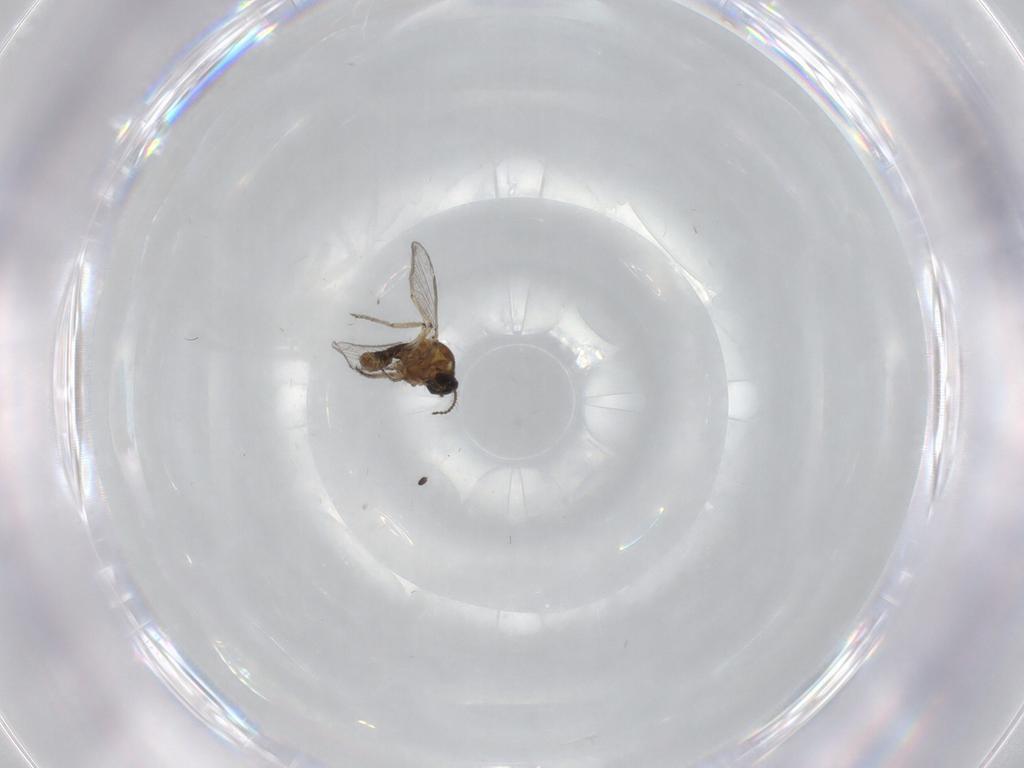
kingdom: Animalia
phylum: Arthropoda
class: Insecta
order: Diptera
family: Ceratopogonidae
